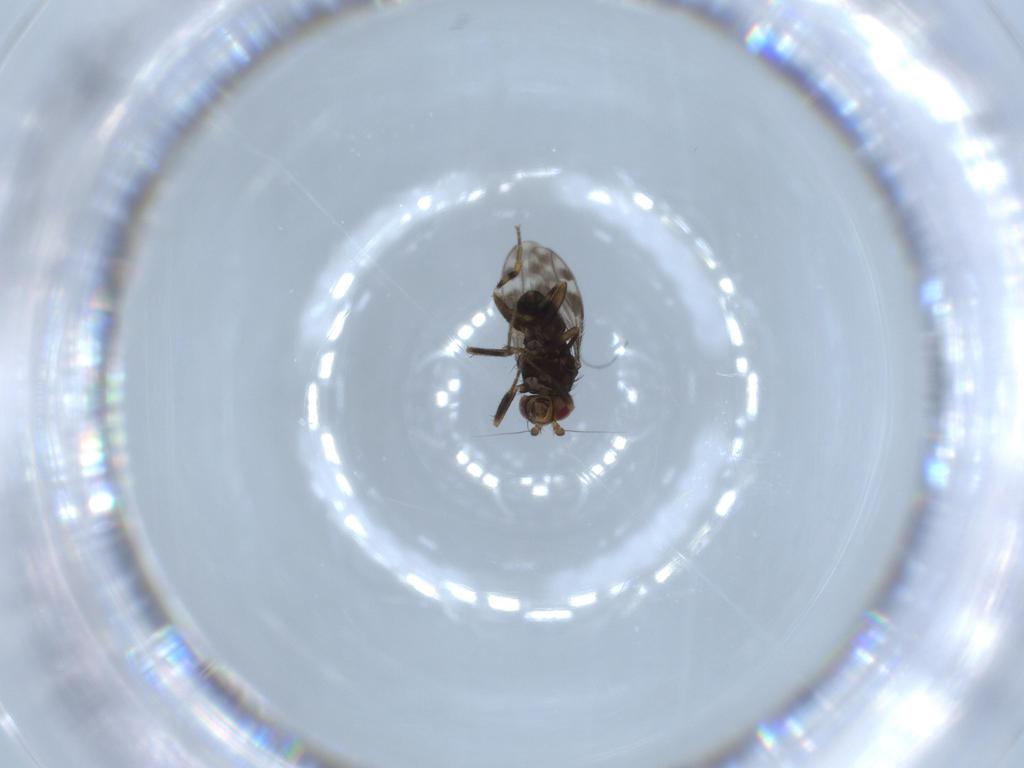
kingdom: Animalia
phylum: Arthropoda
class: Insecta
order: Diptera
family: Sphaeroceridae
